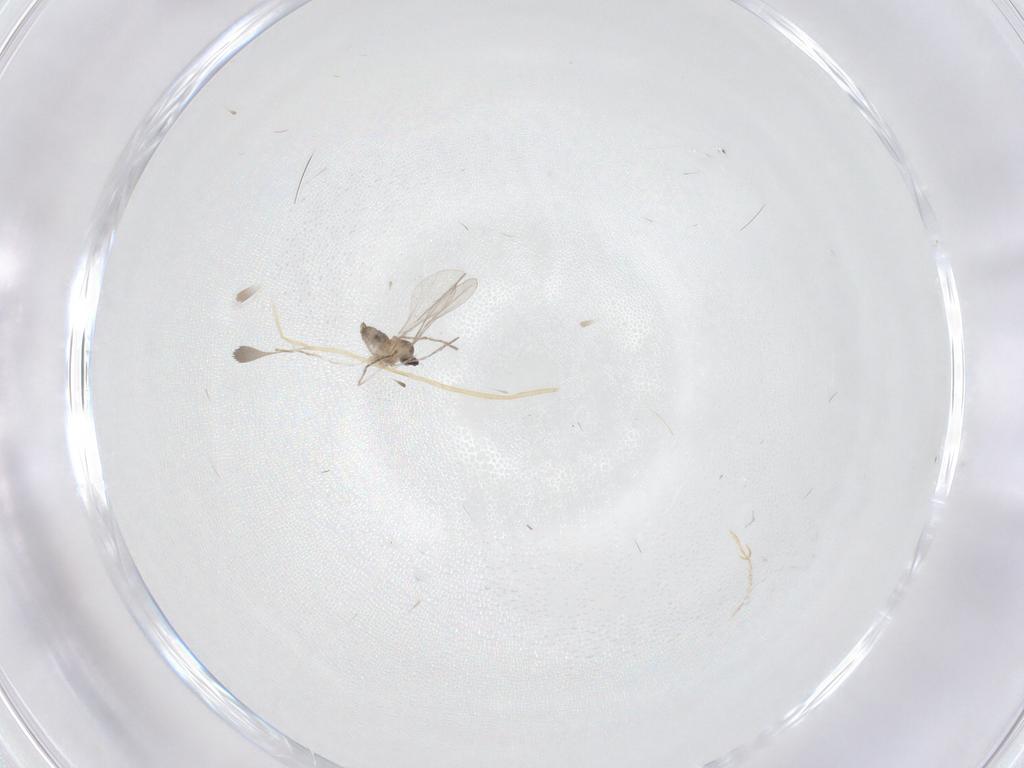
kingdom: Animalia
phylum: Arthropoda
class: Insecta
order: Diptera
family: Cecidomyiidae
